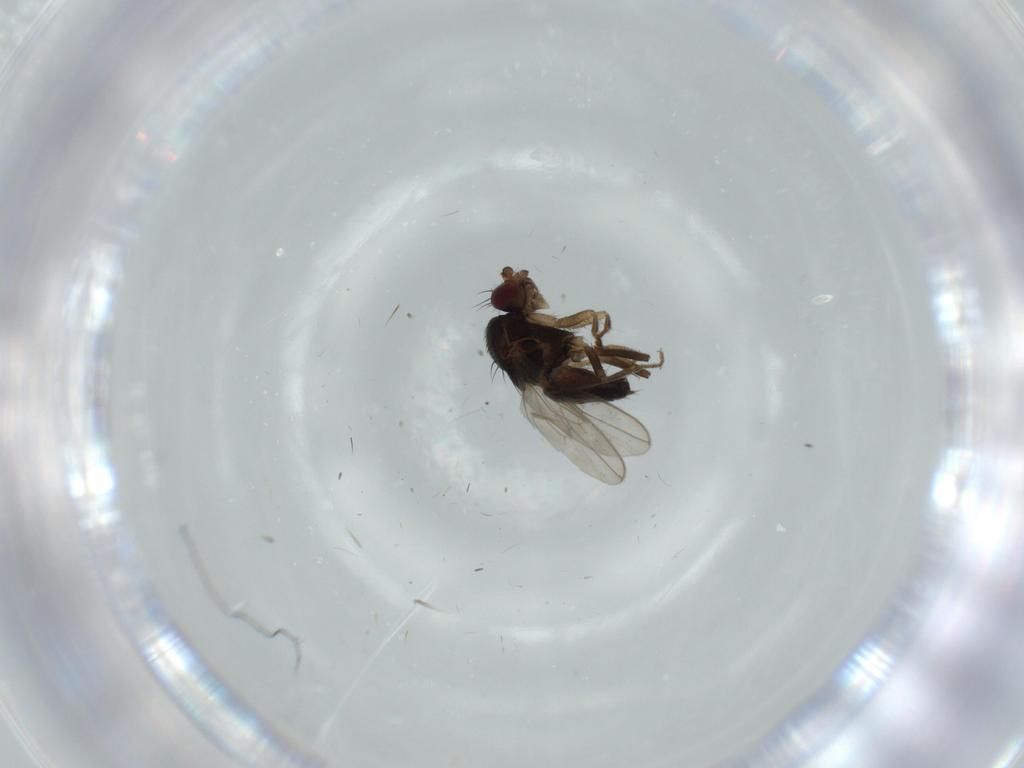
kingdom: Animalia
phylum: Arthropoda
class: Insecta
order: Diptera
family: Sphaeroceridae
